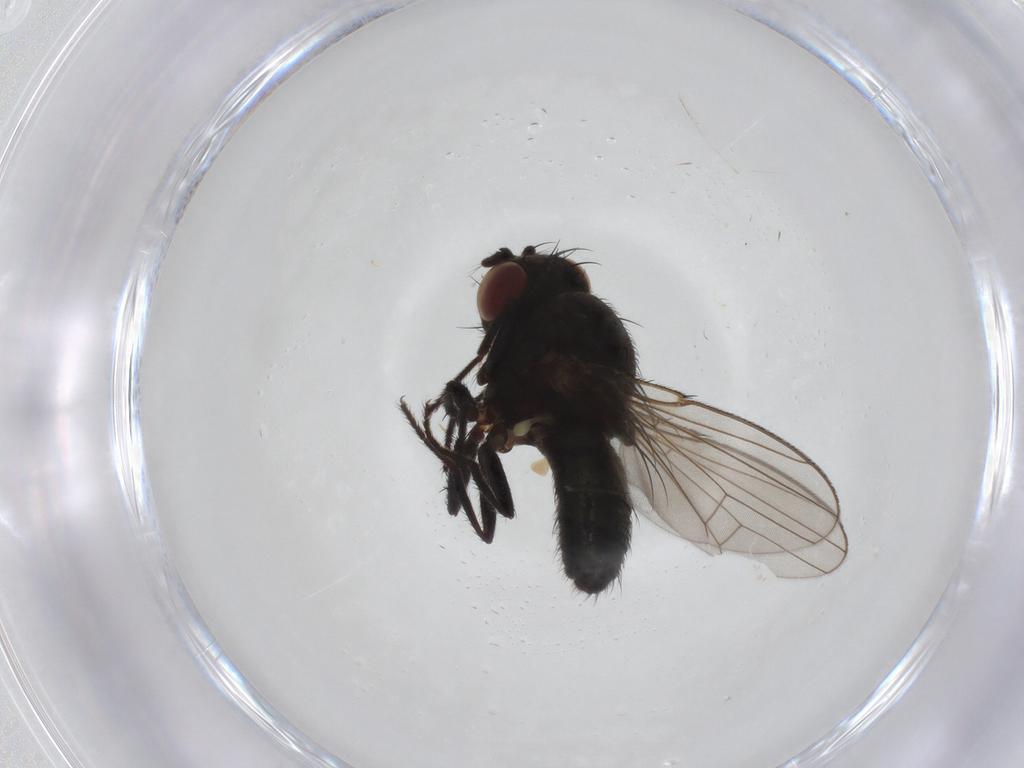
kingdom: Animalia
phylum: Arthropoda
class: Insecta
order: Diptera
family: Ephydridae
